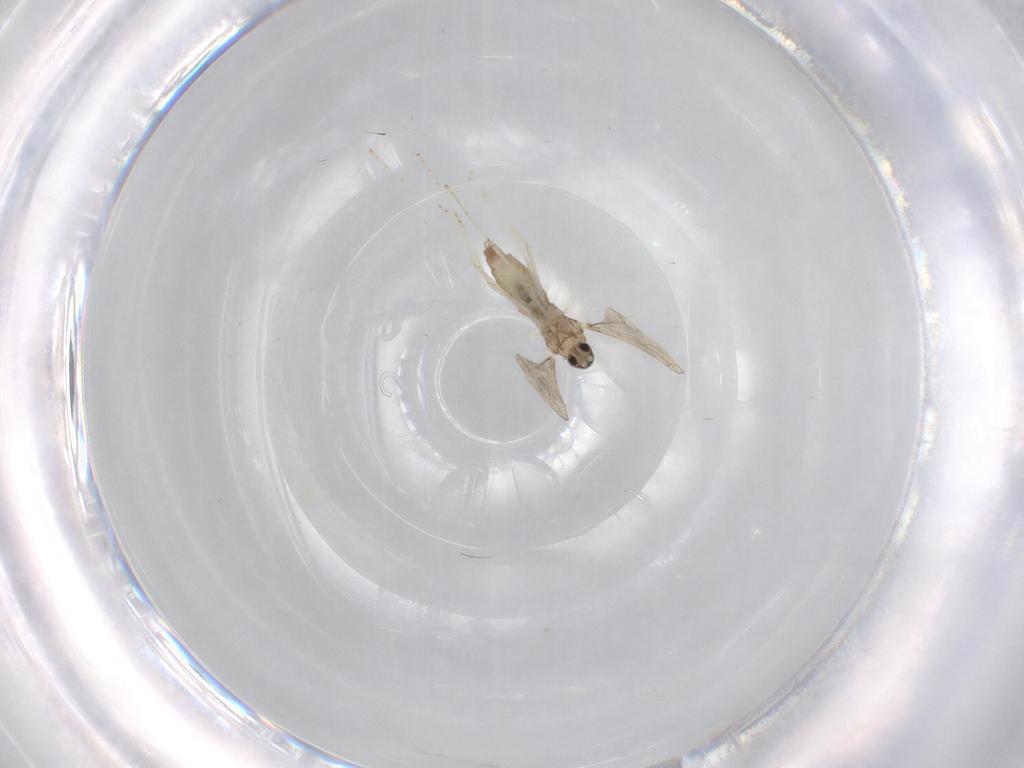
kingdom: Animalia
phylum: Arthropoda
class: Insecta
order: Diptera
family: Cecidomyiidae
